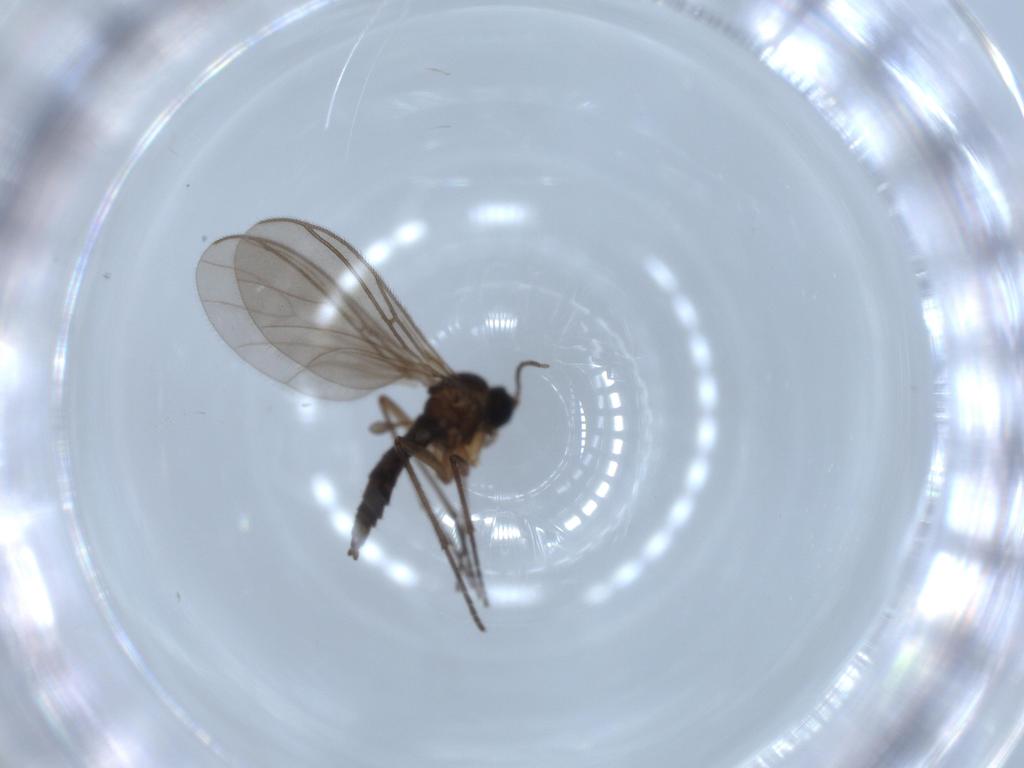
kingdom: Animalia
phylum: Arthropoda
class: Insecta
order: Diptera
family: Sciaridae
